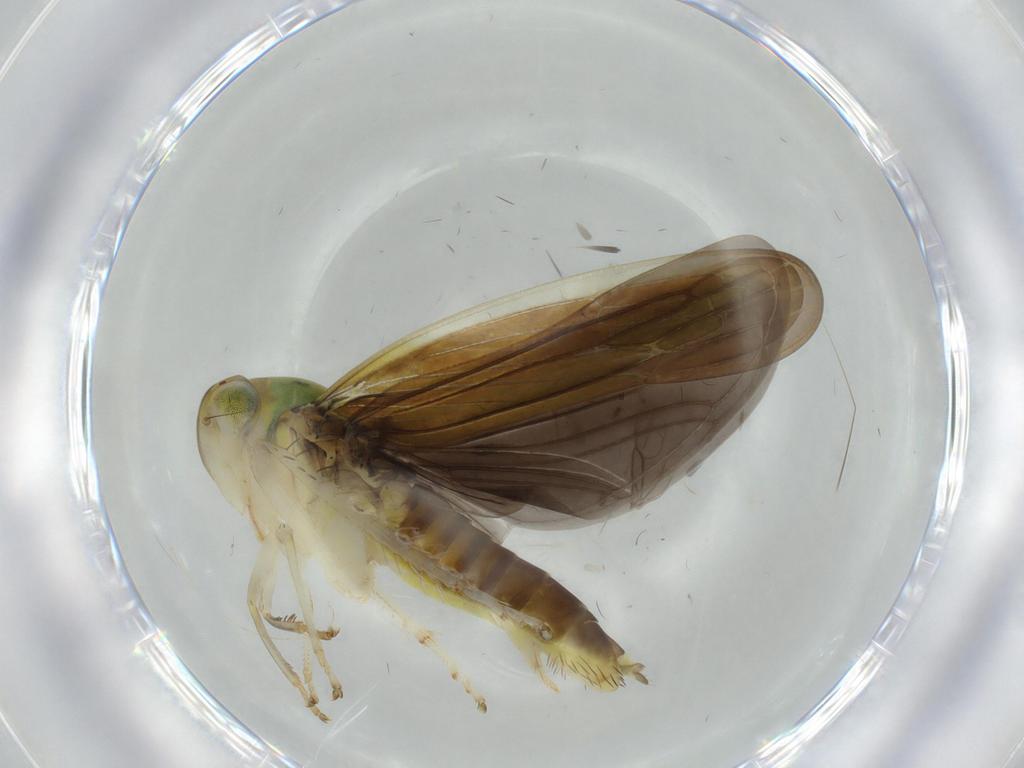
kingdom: Animalia
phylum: Arthropoda
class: Insecta
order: Hemiptera
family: Cicadellidae
